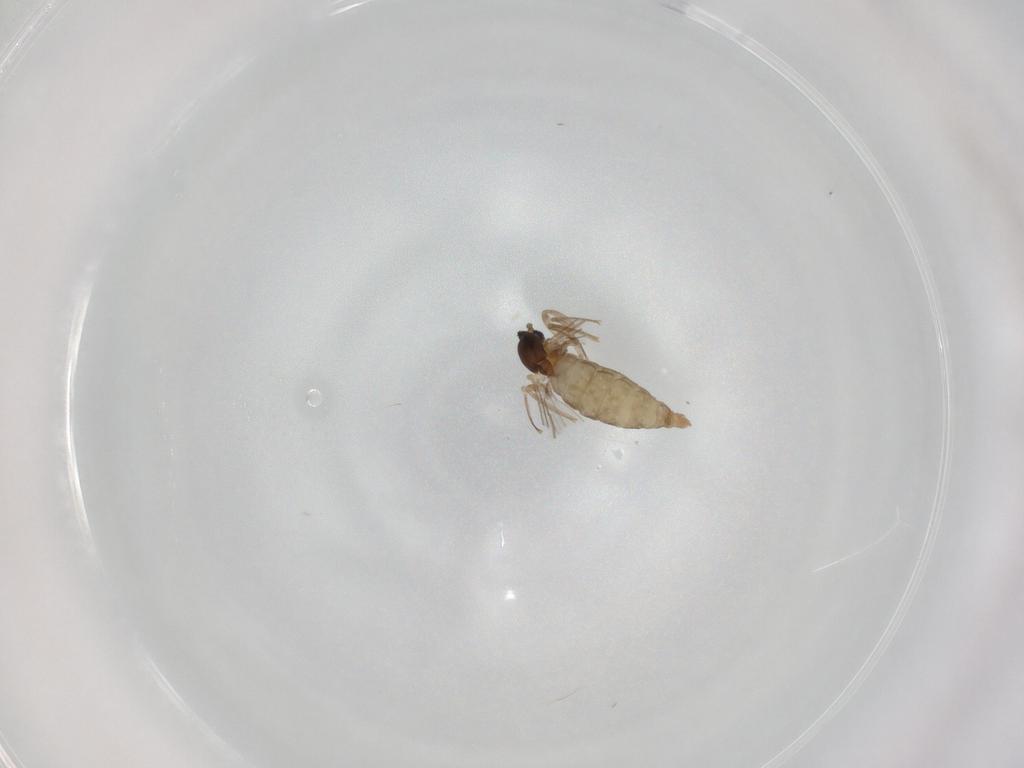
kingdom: Animalia
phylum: Arthropoda
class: Insecta
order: Diptera
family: Cecidomyiidae
